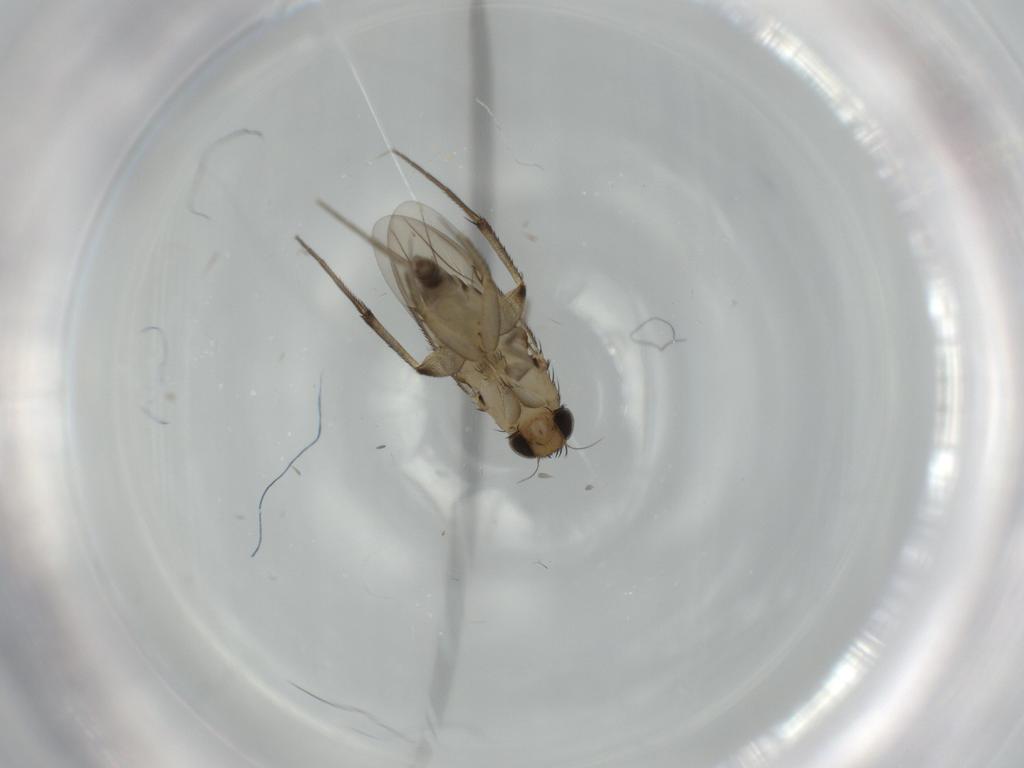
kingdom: Animalia
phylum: Arthropoda
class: Insecta
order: Diptera
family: Phoridae
